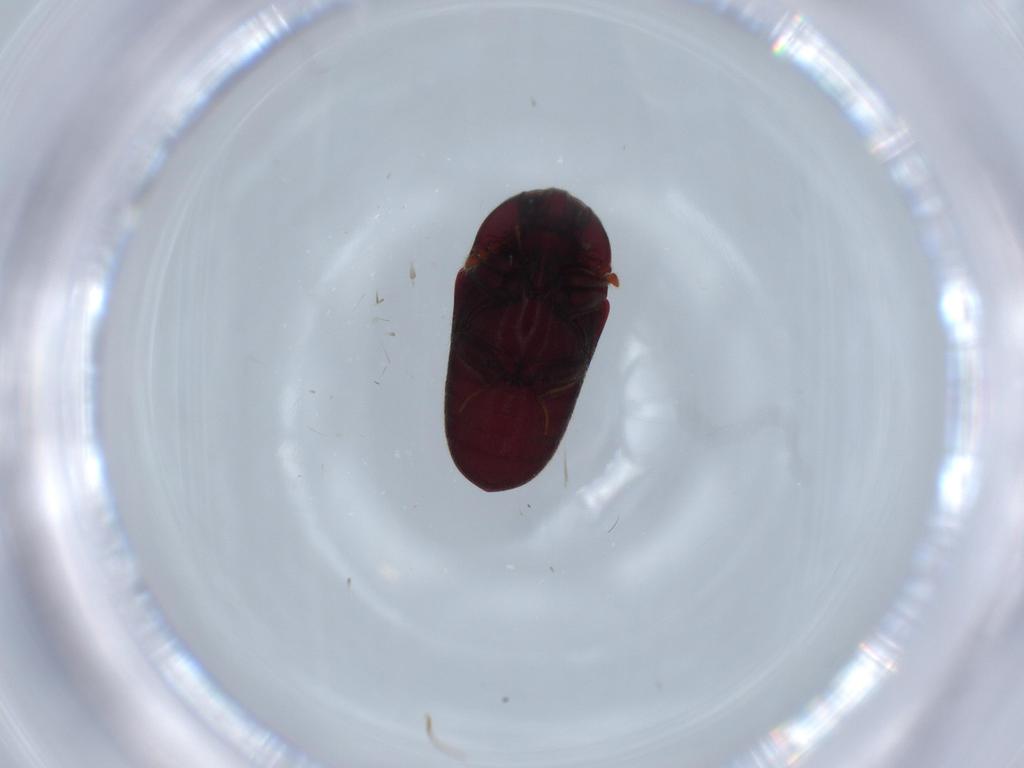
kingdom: Animalia
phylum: Arthropoda
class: Insecta
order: Coleoptera
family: Throscidae
